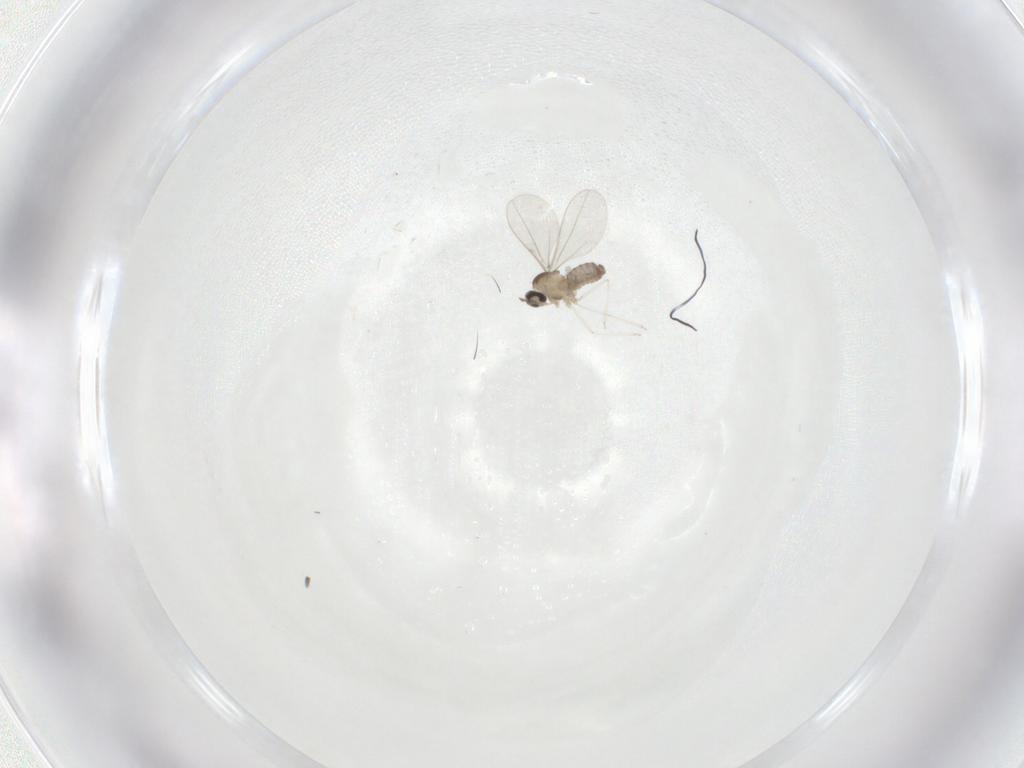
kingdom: Animalia
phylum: Arthropoda
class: Insecta
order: Diptera
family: Cecidomyiidae
